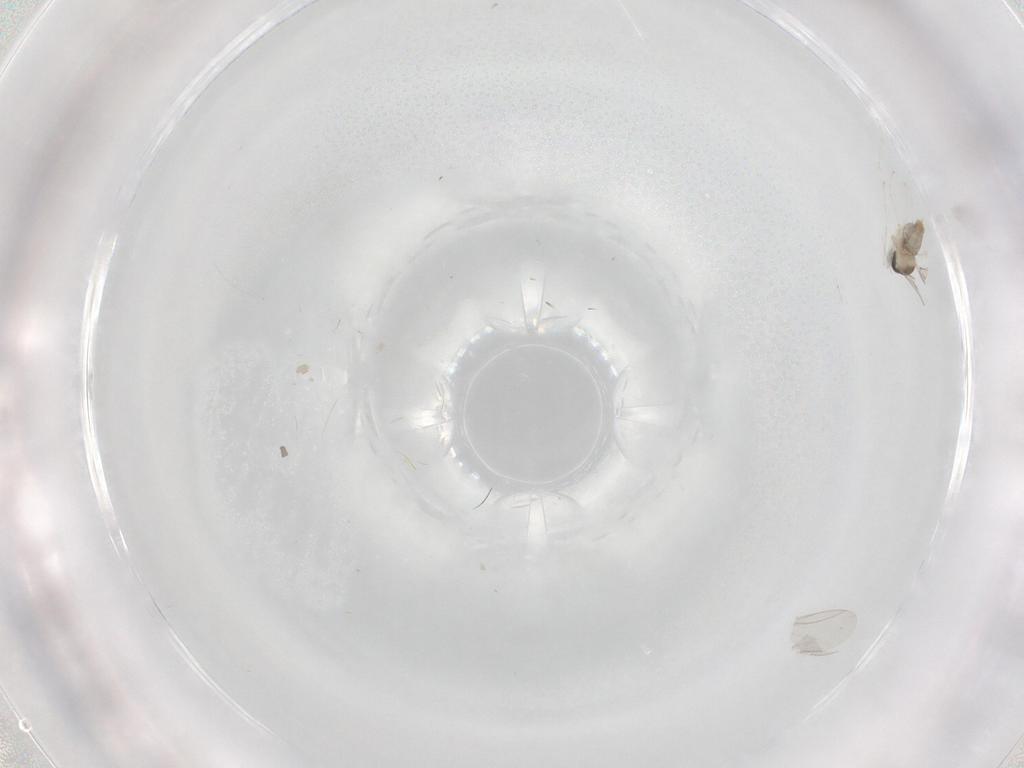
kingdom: Animalia
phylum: Arthropoda
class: Insecta
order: Diptera
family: Cecidomyiidae
